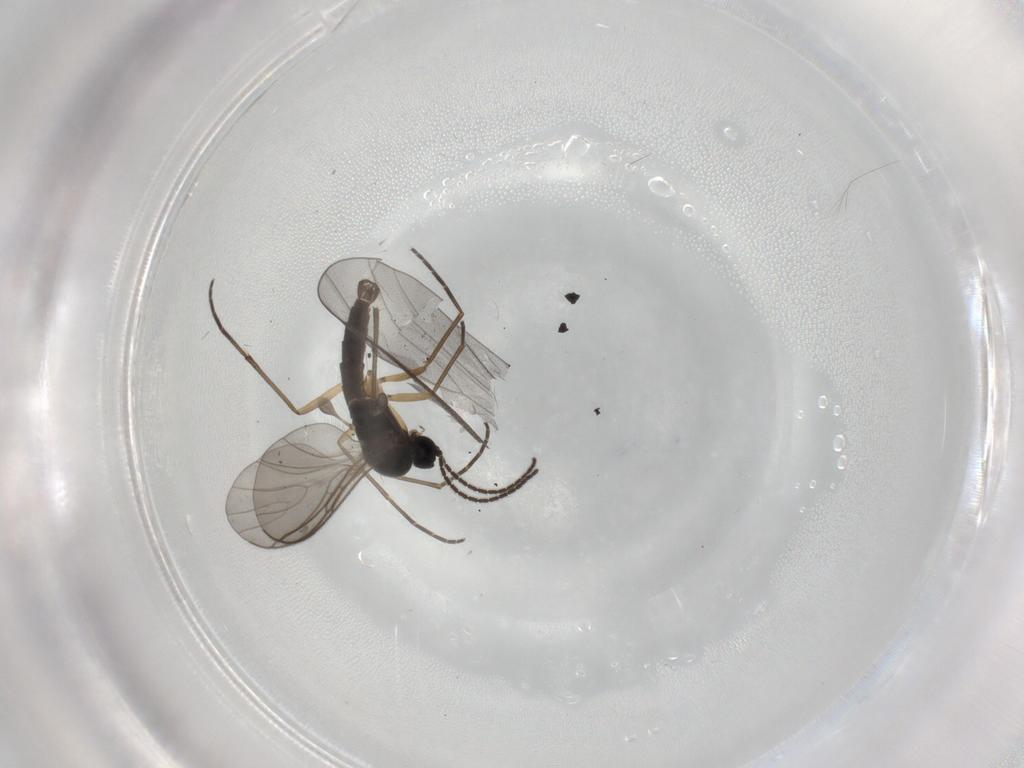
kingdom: Animalia
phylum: Arthropoda
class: Insecta
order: Diptera
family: Sciaridae
